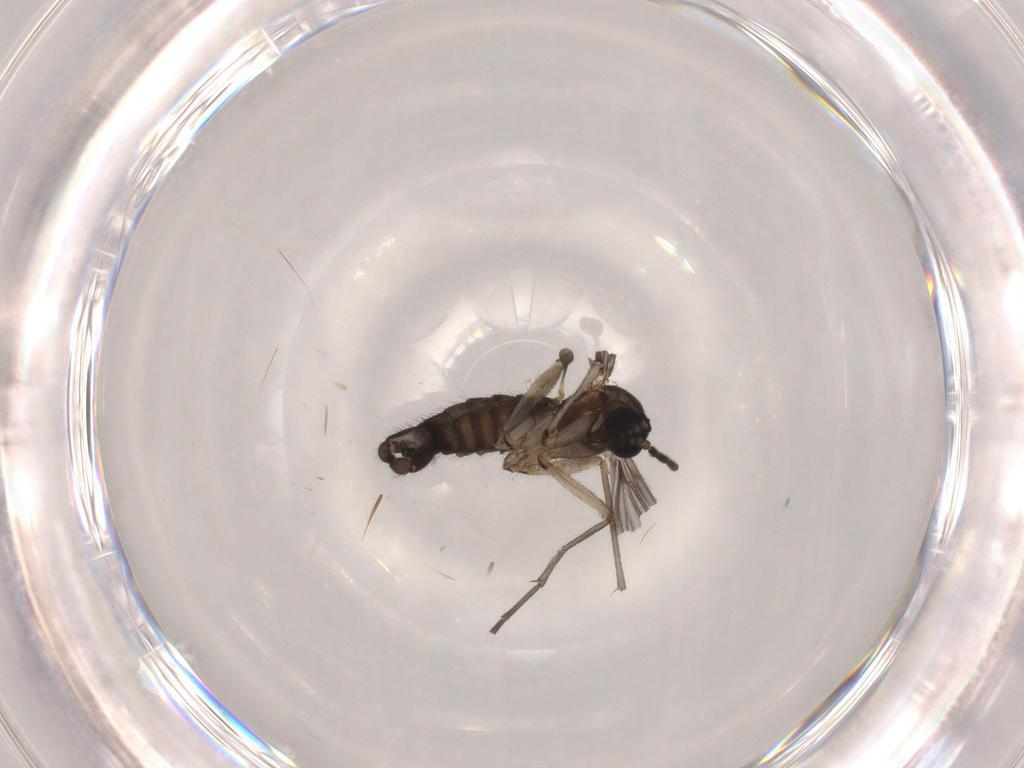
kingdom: Animalia
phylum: Arthropoda
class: Insecta
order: Diptera
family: Sciaridae
